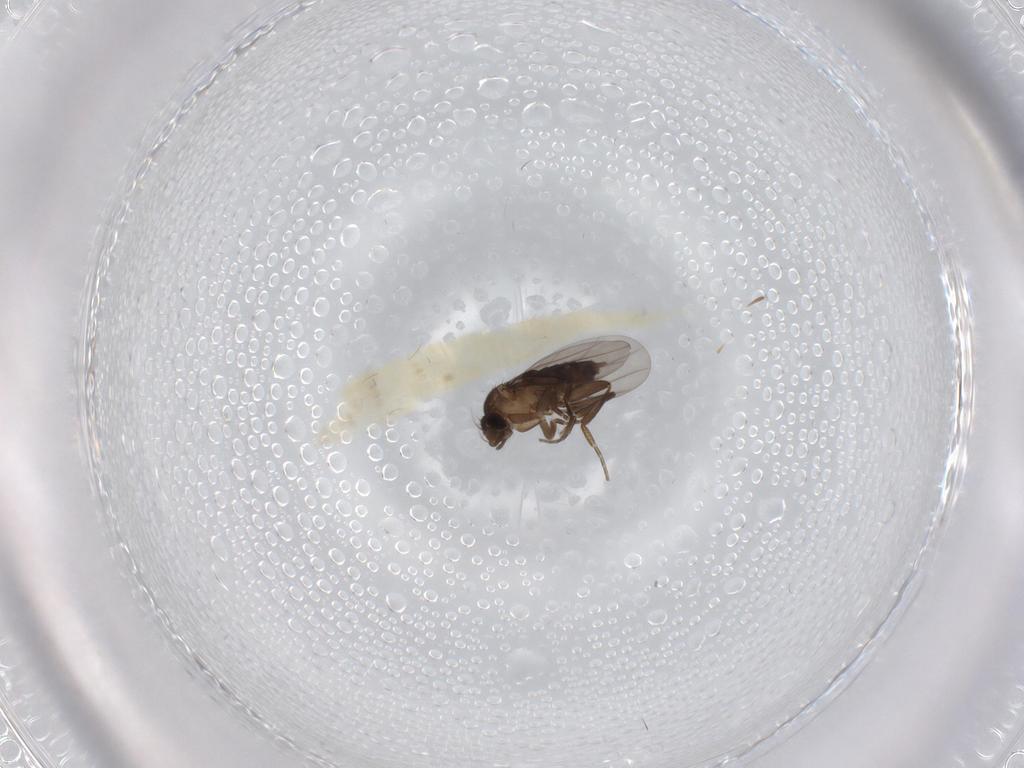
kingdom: Animalia
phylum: Arthropoda
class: Insecta
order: Diptera
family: Phoridae
